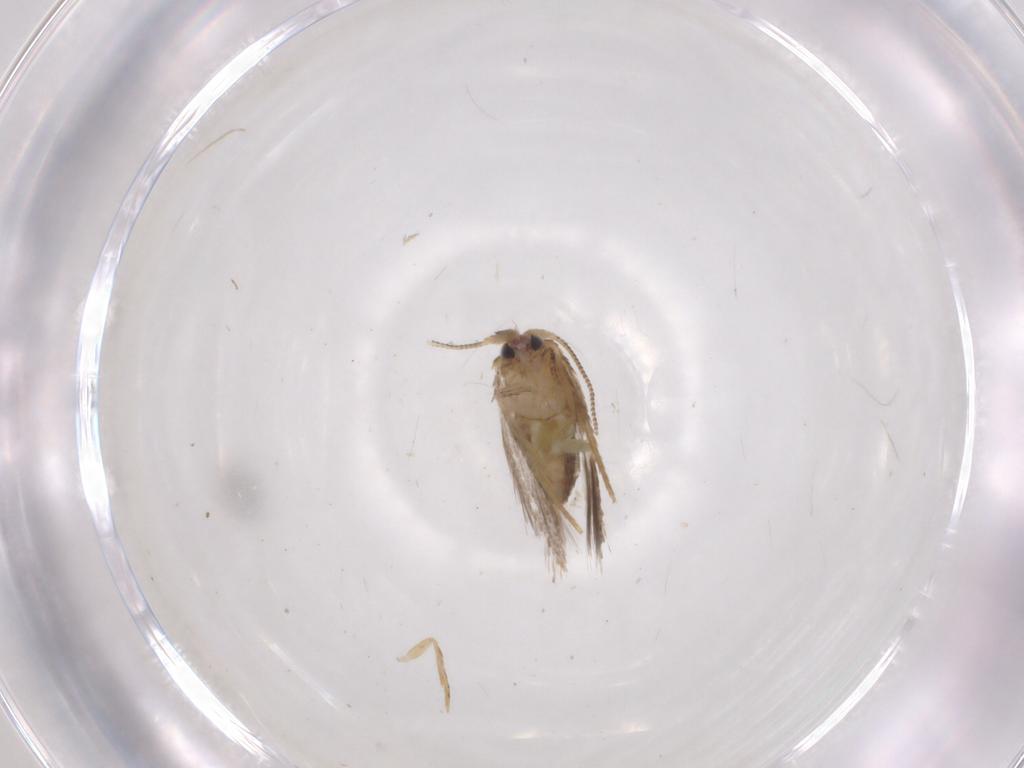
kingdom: Animalia
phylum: Arthropoda
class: Insecta
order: Lepidoptera
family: Nepticulidae
